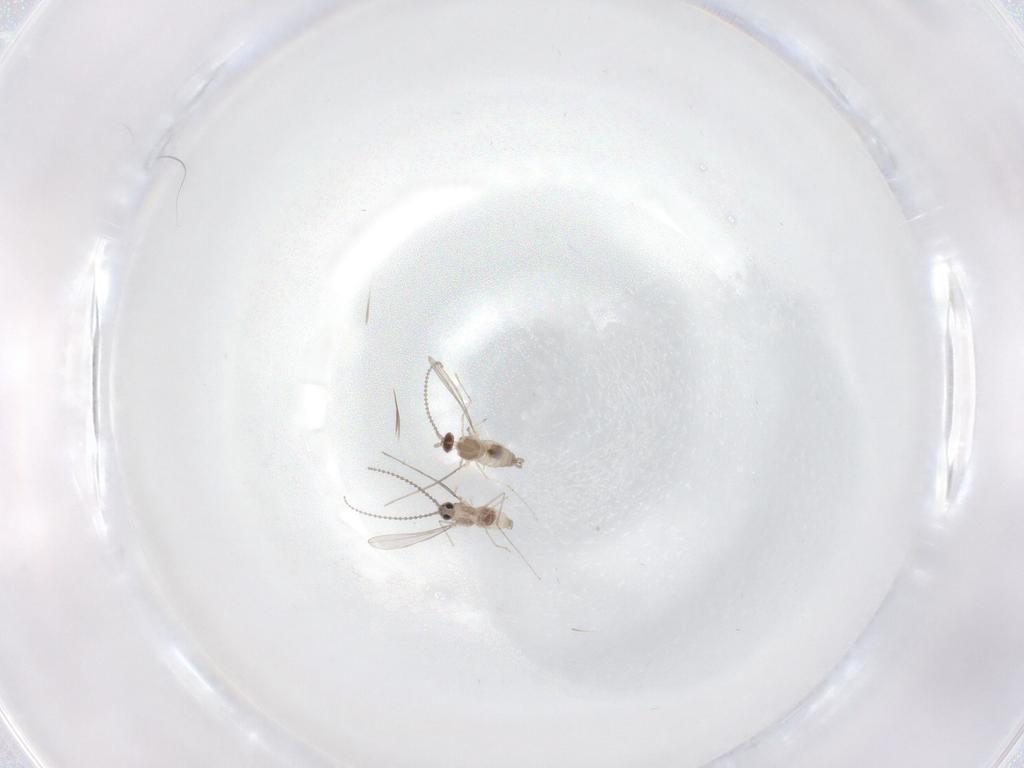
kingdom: Animalia
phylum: Arthropoda
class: Insecta
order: Diptera
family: Cecidomyiidae
